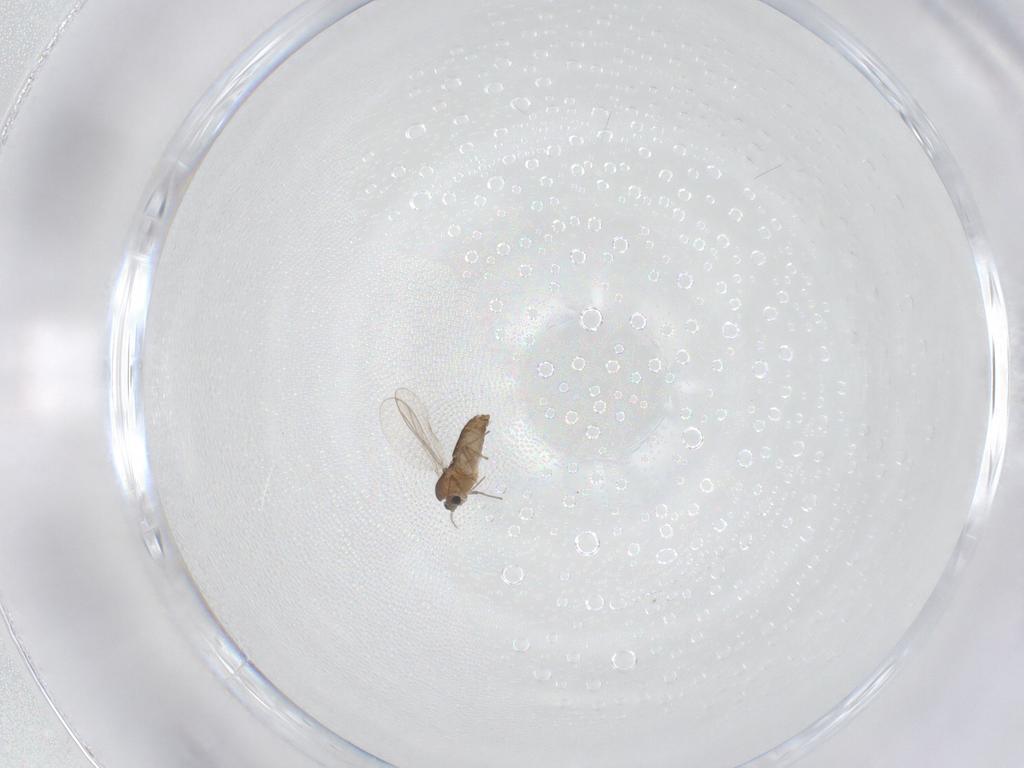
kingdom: Animalia
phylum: Arthropoda
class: Insecta
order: Diptera
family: Chironomidae
